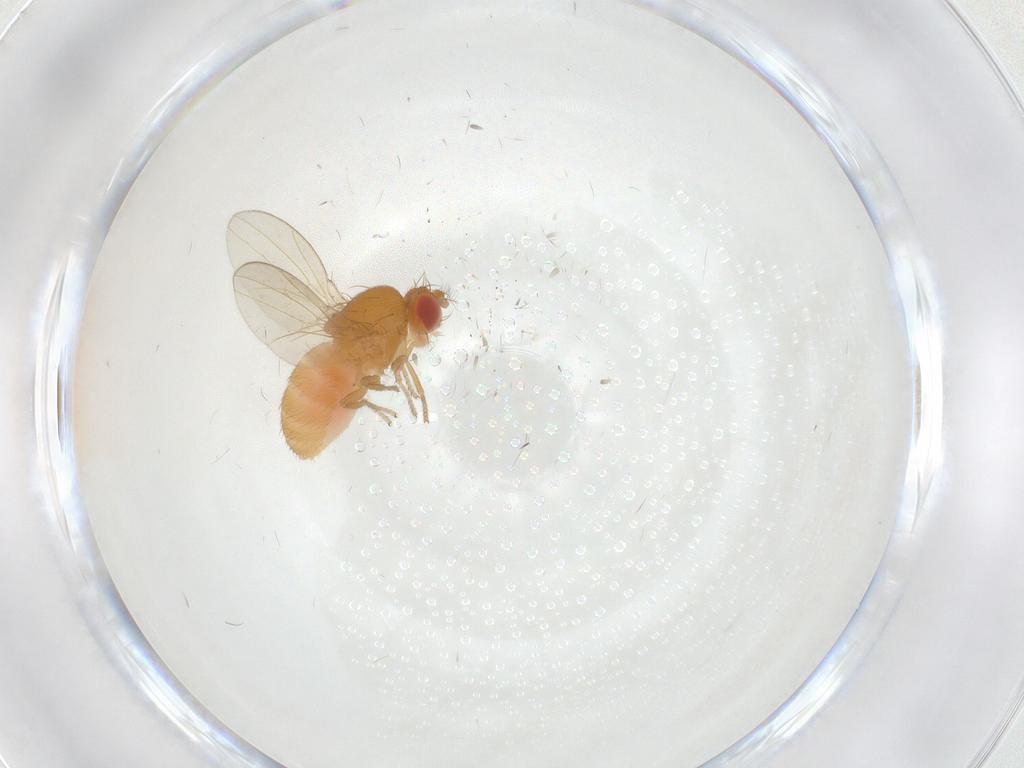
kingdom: Animalia
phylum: Arthropoda
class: Insecta
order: Diptera
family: Drosophilidae
